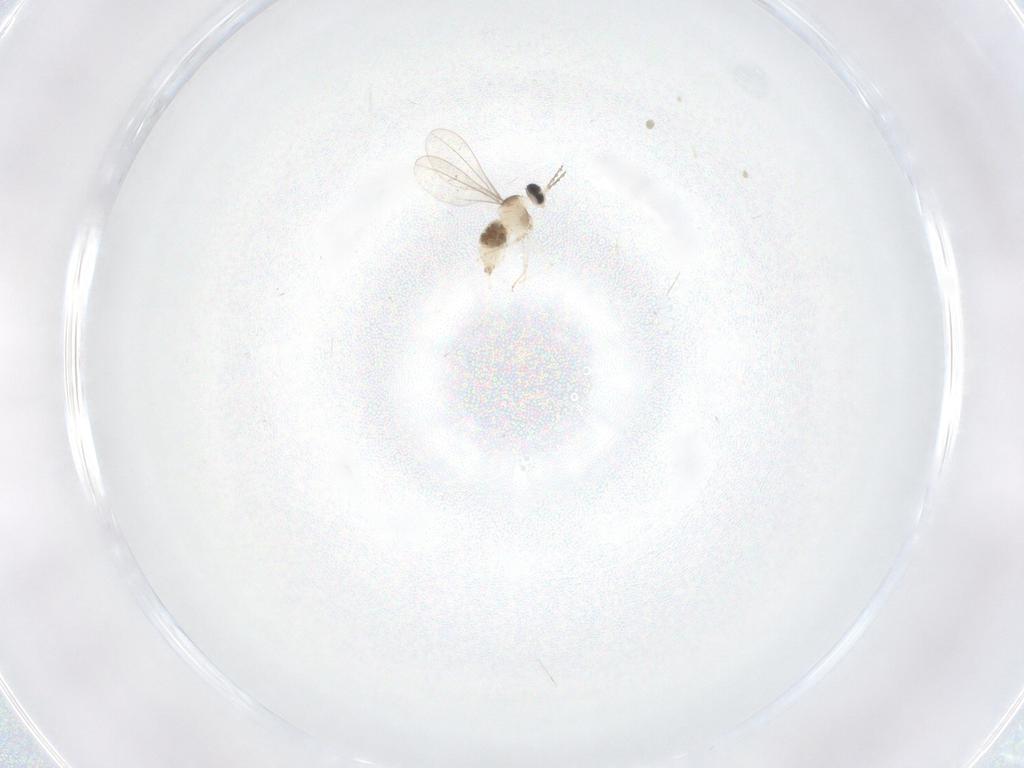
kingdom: Animalia
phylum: Arthropoda
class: Insecta
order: Diptera
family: Cecidomyiidae
